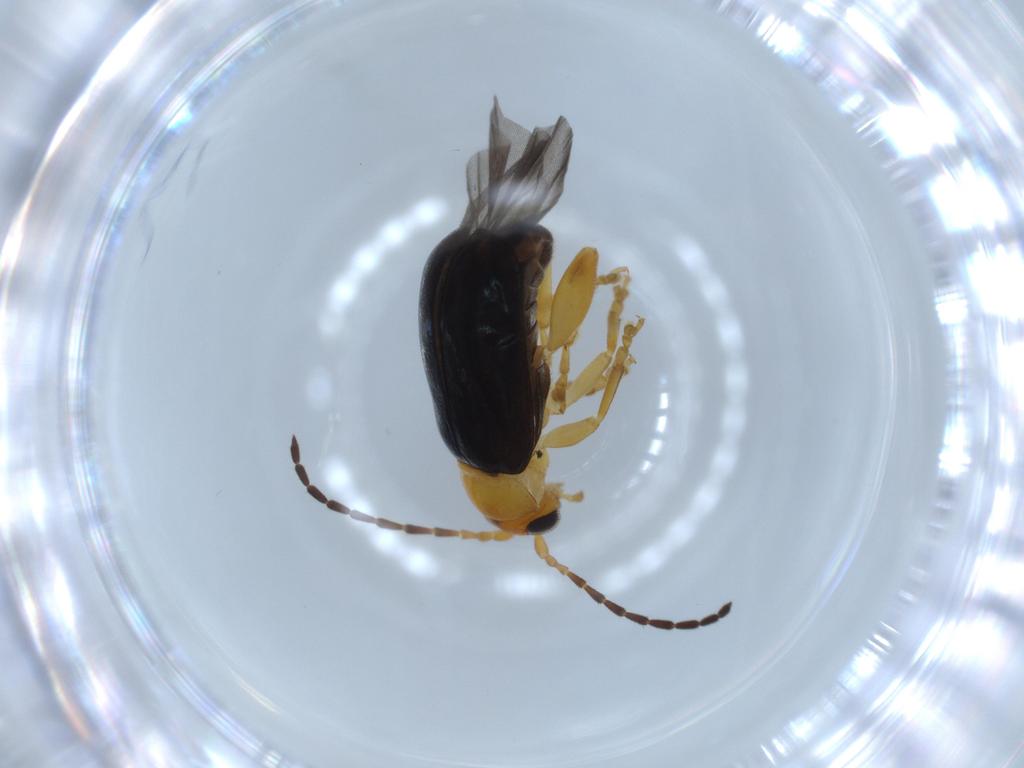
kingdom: Animalia
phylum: Arthropoda
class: Insecta
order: Coleoptera
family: Chrysomelidae
